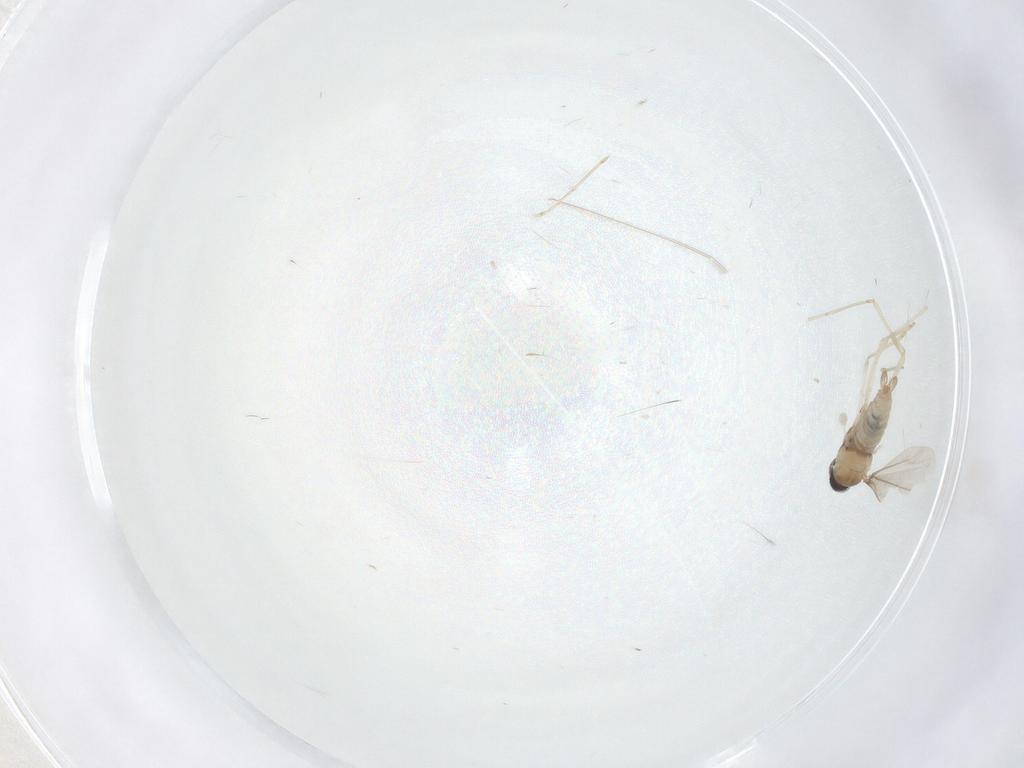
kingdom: Animalia
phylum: Arthropoda
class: Insecta
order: Diptera
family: Cecidomyiidae
